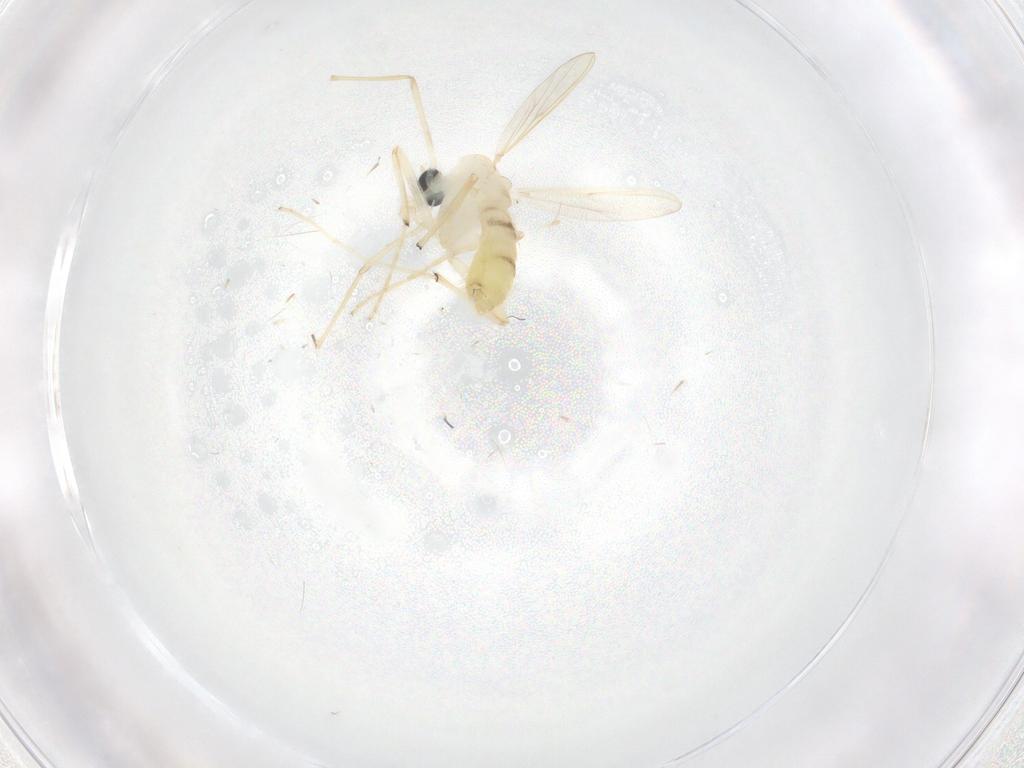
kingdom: Animalia
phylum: Arthropoda
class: Insecta
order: Diptera
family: Chironomidae
